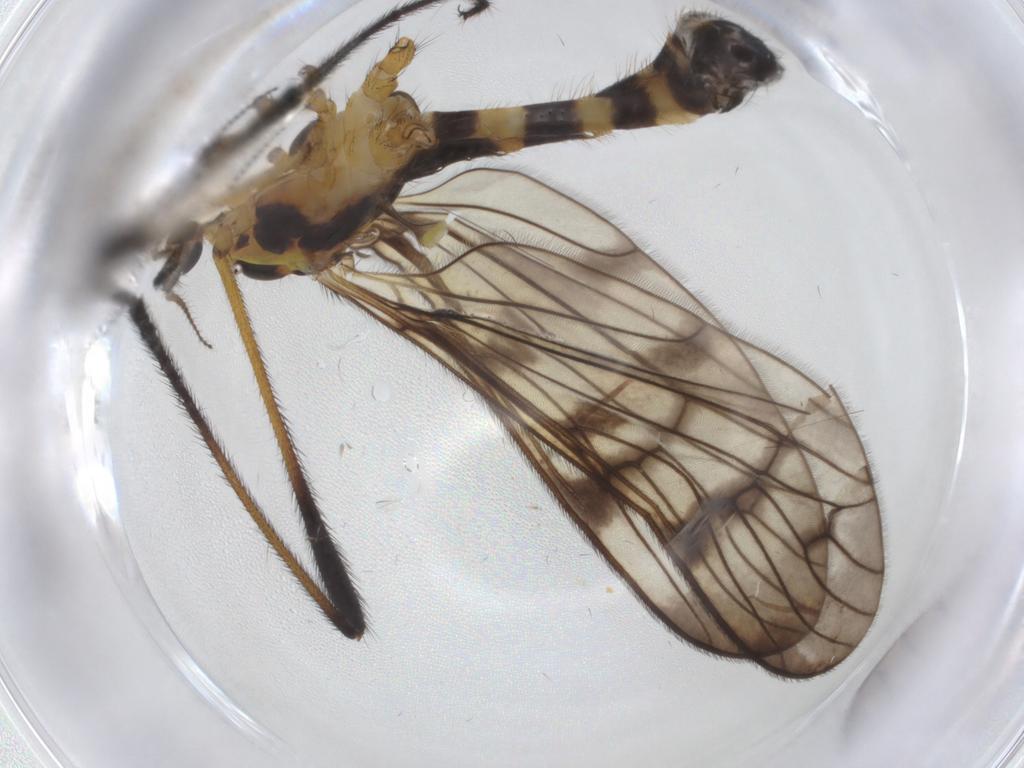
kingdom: Animalia
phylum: Arthropoda
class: Insecta
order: Diptera
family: Limoniidae
